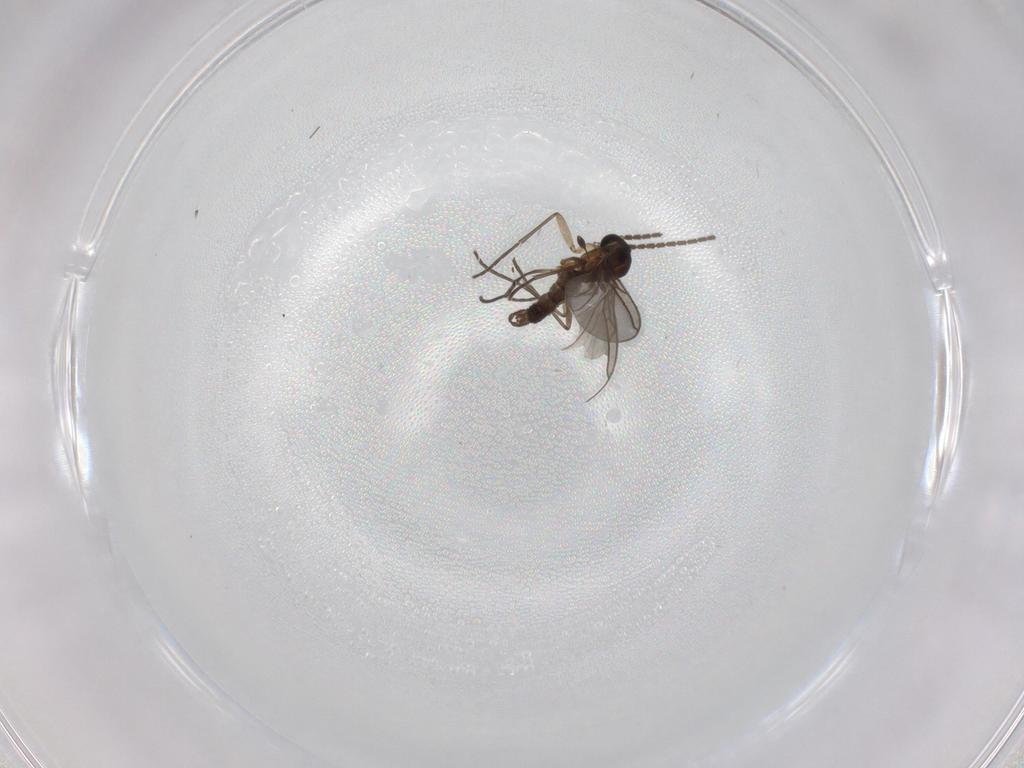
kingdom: Animalia
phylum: Arthropoda
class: Insecta
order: Diptera
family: Sciaridae
